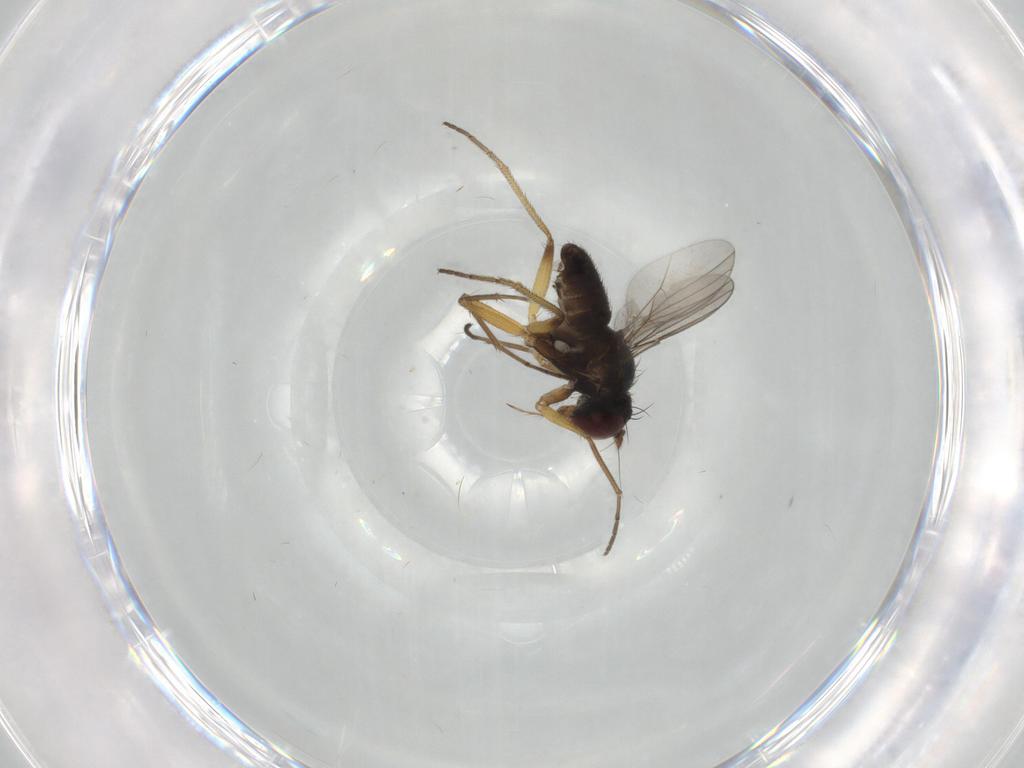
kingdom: Animalia
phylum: Arthropoda
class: Insecta
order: Diptera
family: Dolichopodidae
